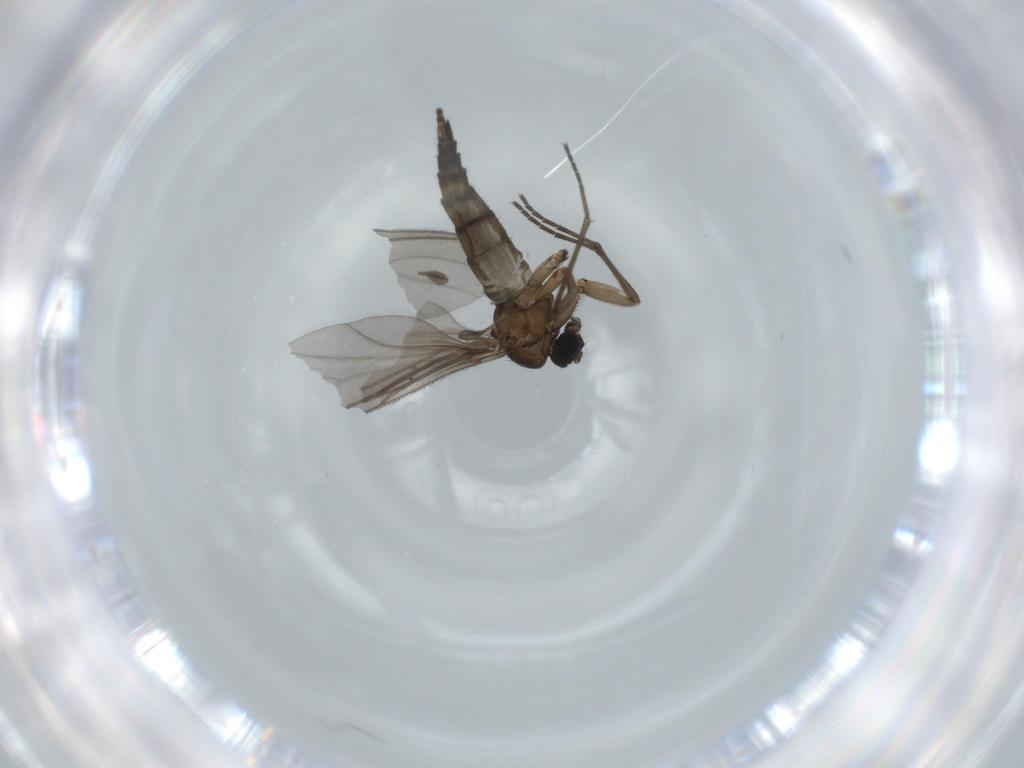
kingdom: Animalia
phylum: Arthropoda
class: Insecta
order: Diptera
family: Sciaridae
